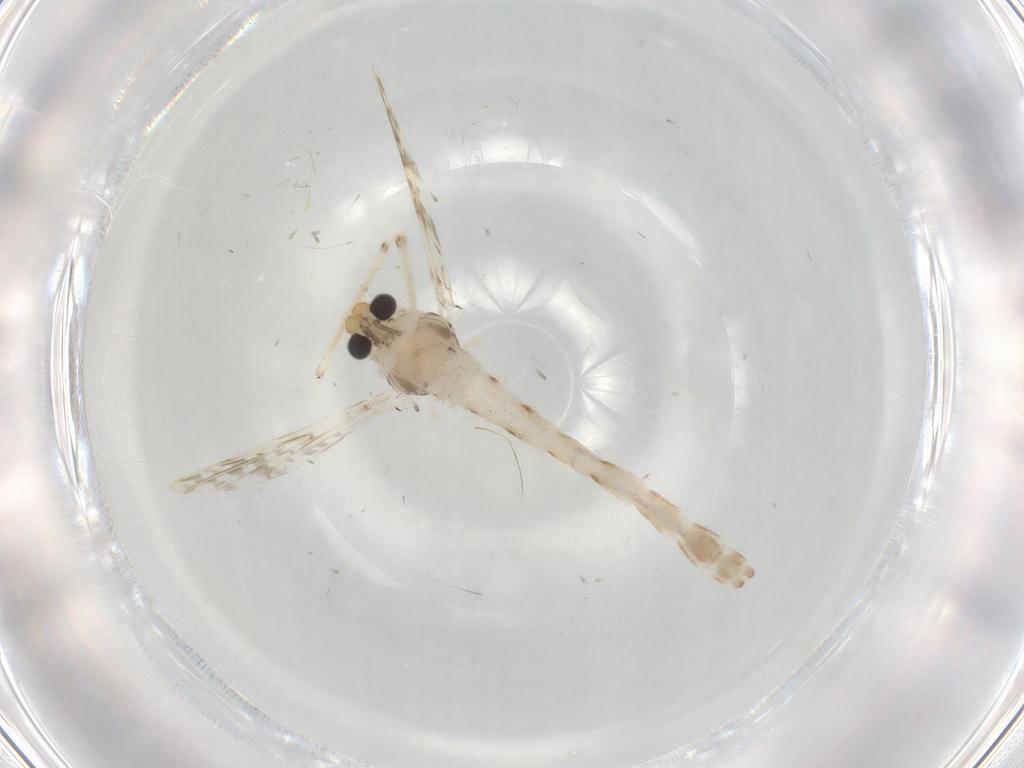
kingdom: Animalia
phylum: Arthropoda
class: Insecta
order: Diptera
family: Chironomidae
